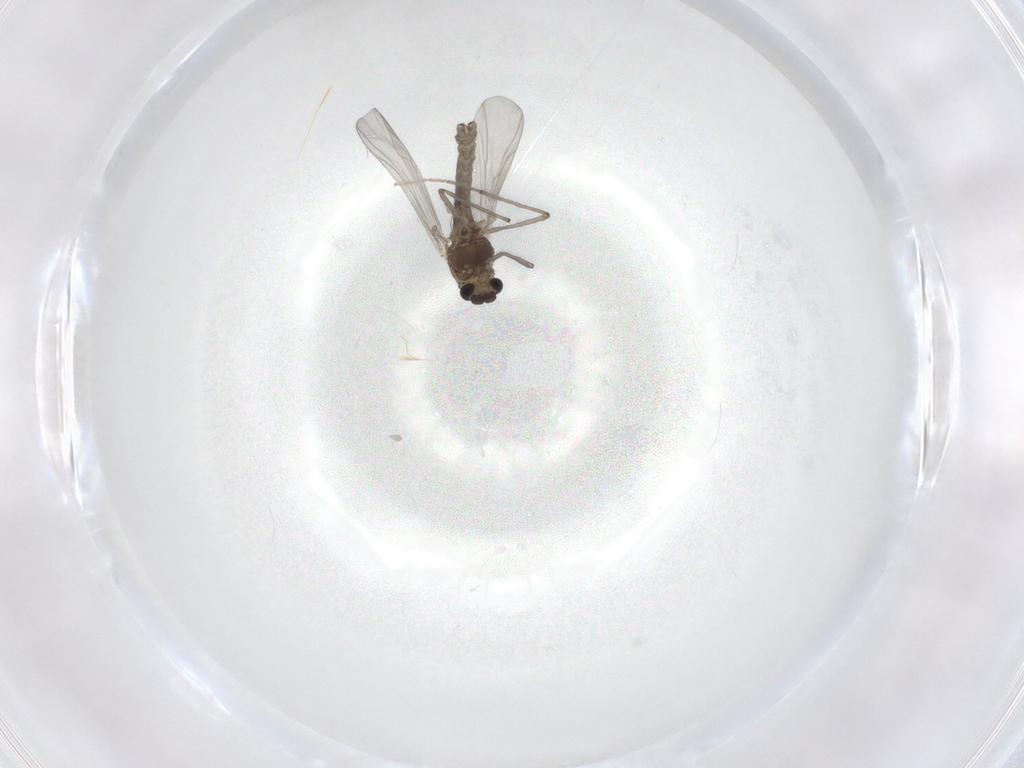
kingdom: Animalia
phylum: Arthropoda
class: Insecta
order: Diptera
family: Chironomidae
